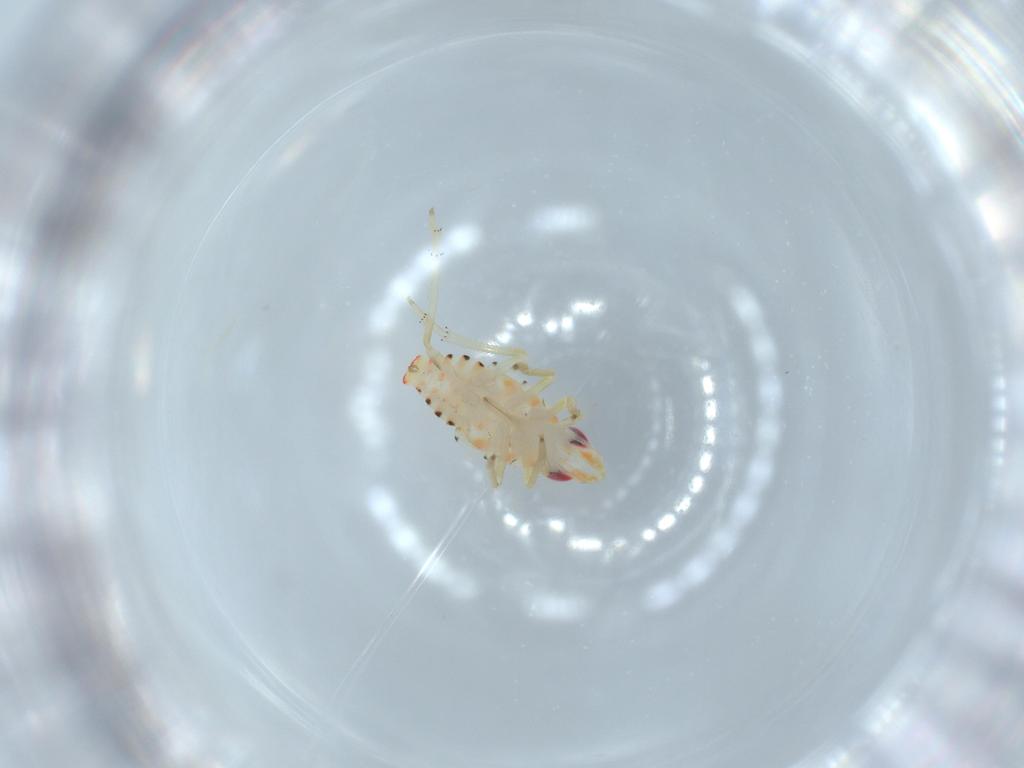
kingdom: Animalia
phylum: Arthropoda
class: Insecta
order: Hemiptera
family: Tropiduchidae
